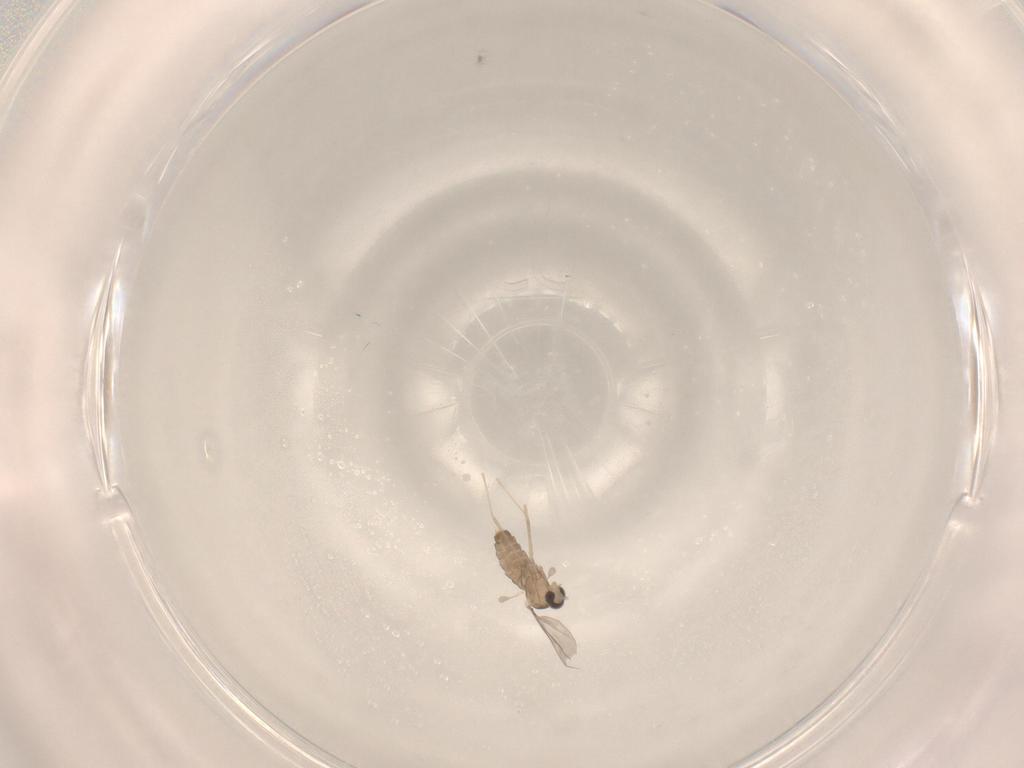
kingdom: Animalia
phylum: Arthropoda
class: Insecta
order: Diptera
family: Cecidomyiidae
